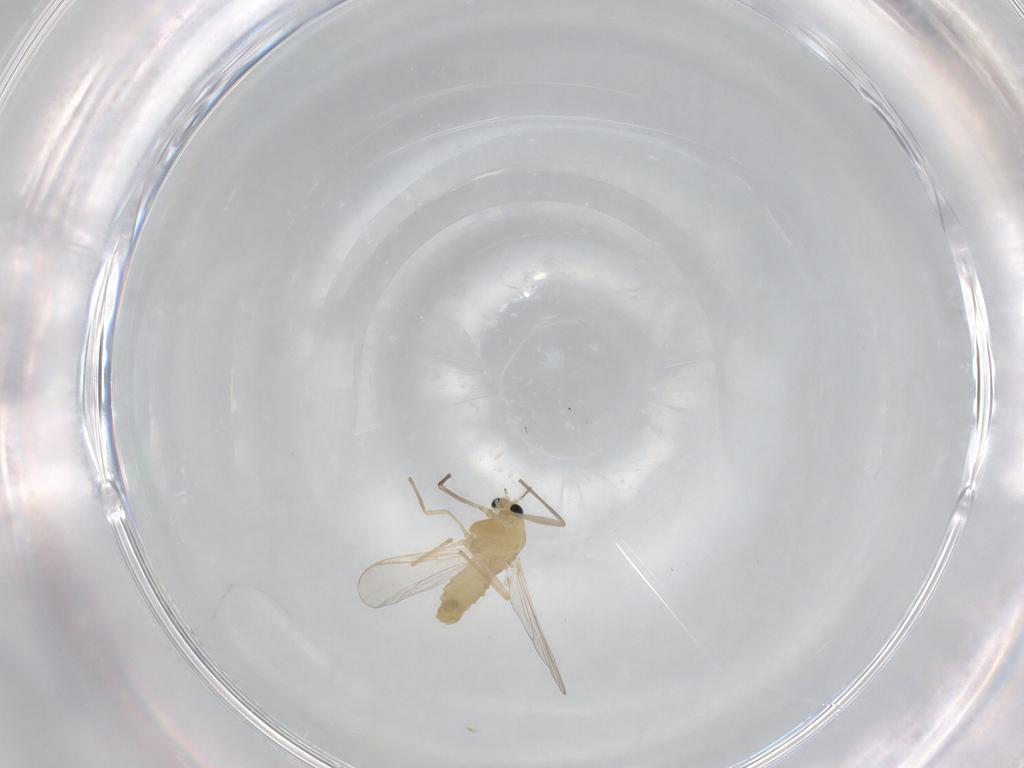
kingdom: Animalia
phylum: Arthropoda
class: Insecta
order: Diptera
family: Chironomidae
